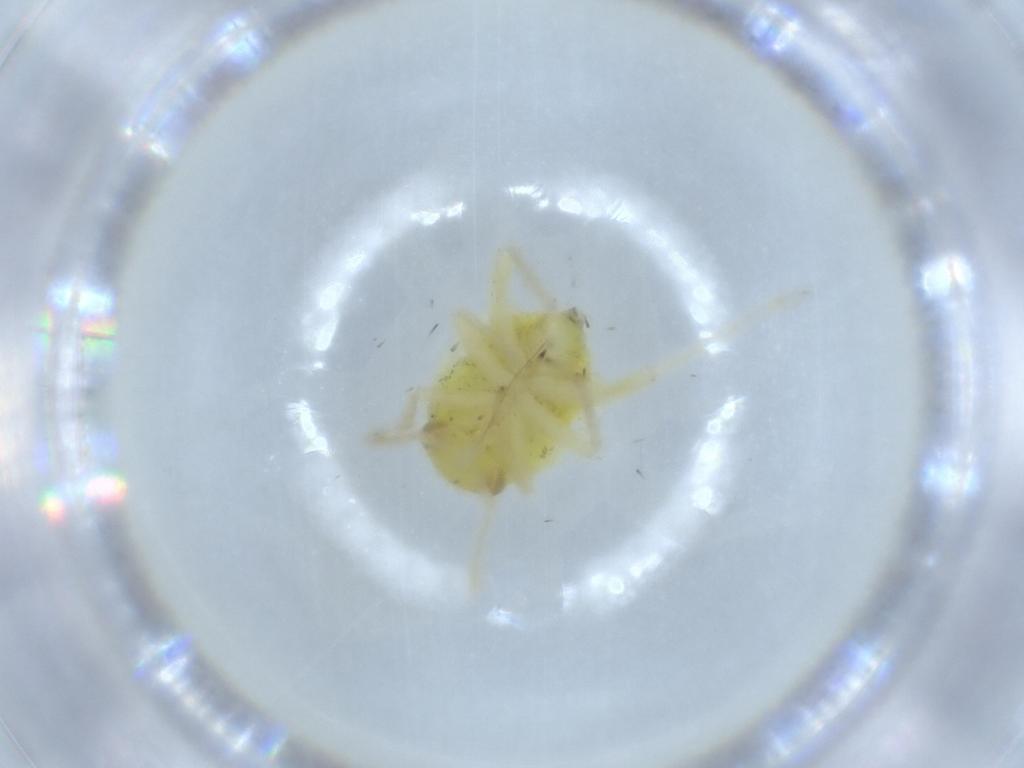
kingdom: Animalia
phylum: Arthropoda
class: Insecta
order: Hemiptera
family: Miridae
